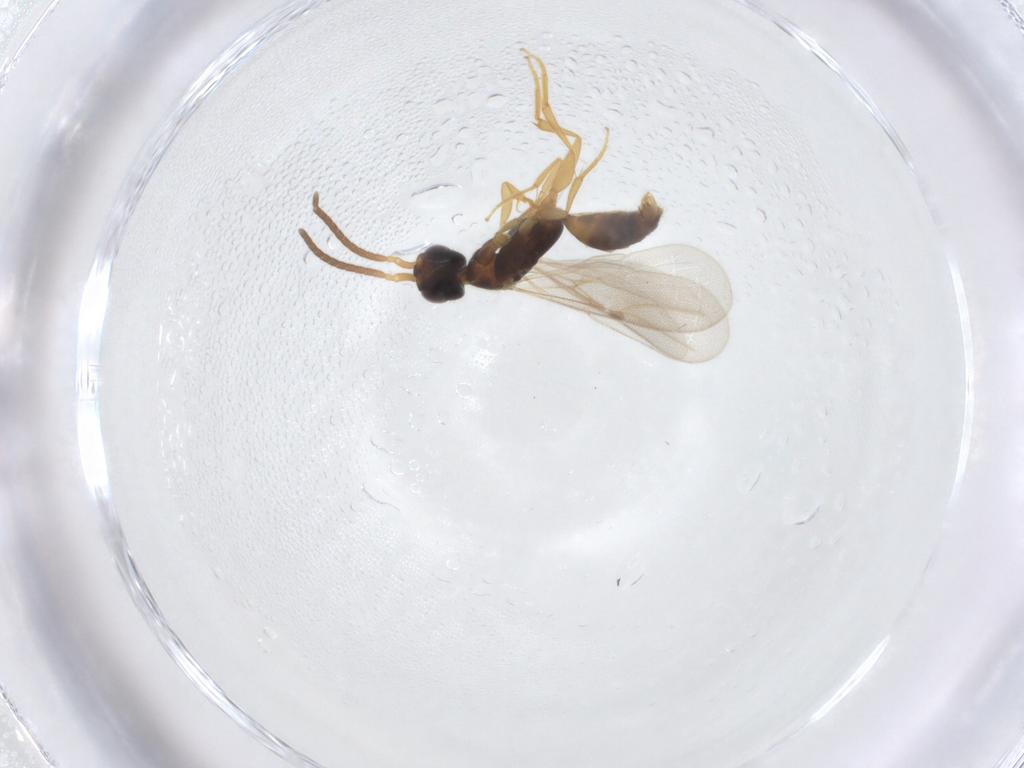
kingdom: Animalia
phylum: Arthropoda
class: Insecta
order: Hymenoptera
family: Bethylidae
